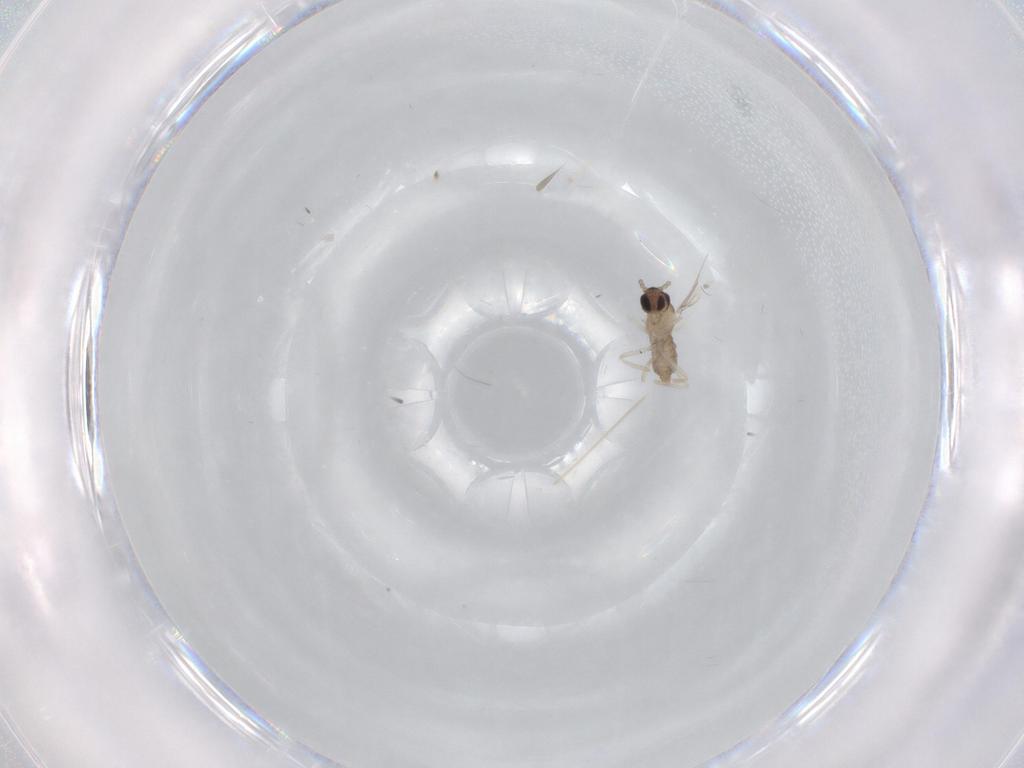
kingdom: Animalia
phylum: Arthropoda
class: Insecta
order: Diptera
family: Cecidomyiidae
